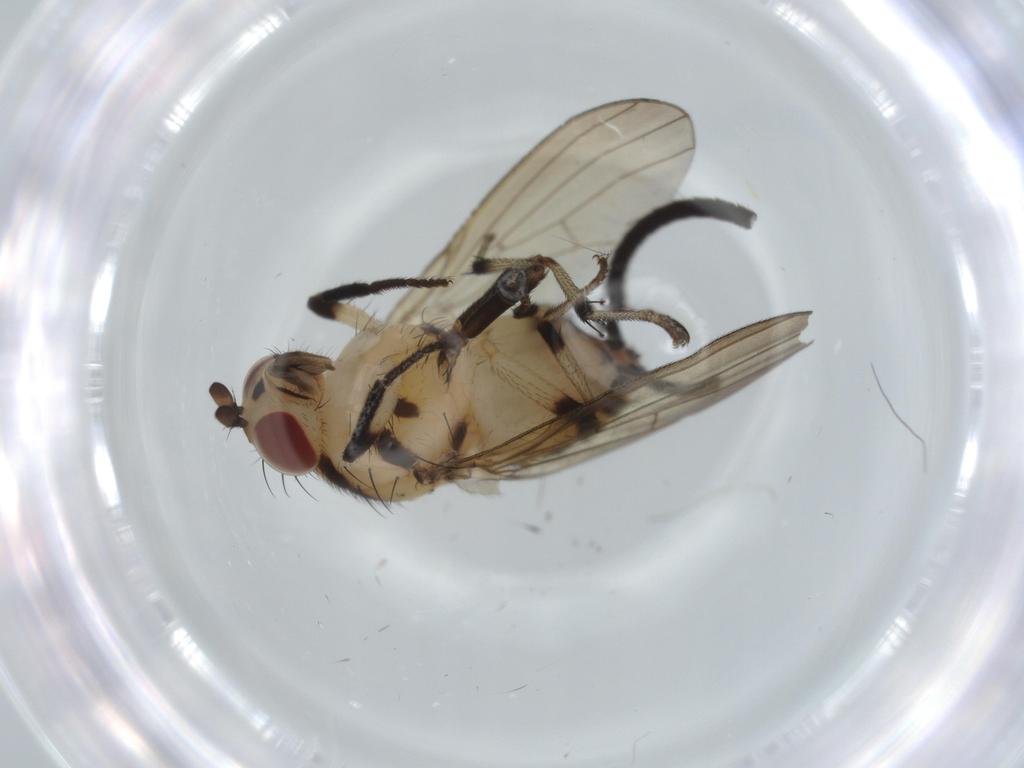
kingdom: Animalia
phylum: Arthropoda
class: Insecta
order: Diptera
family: Lauxaniidae
